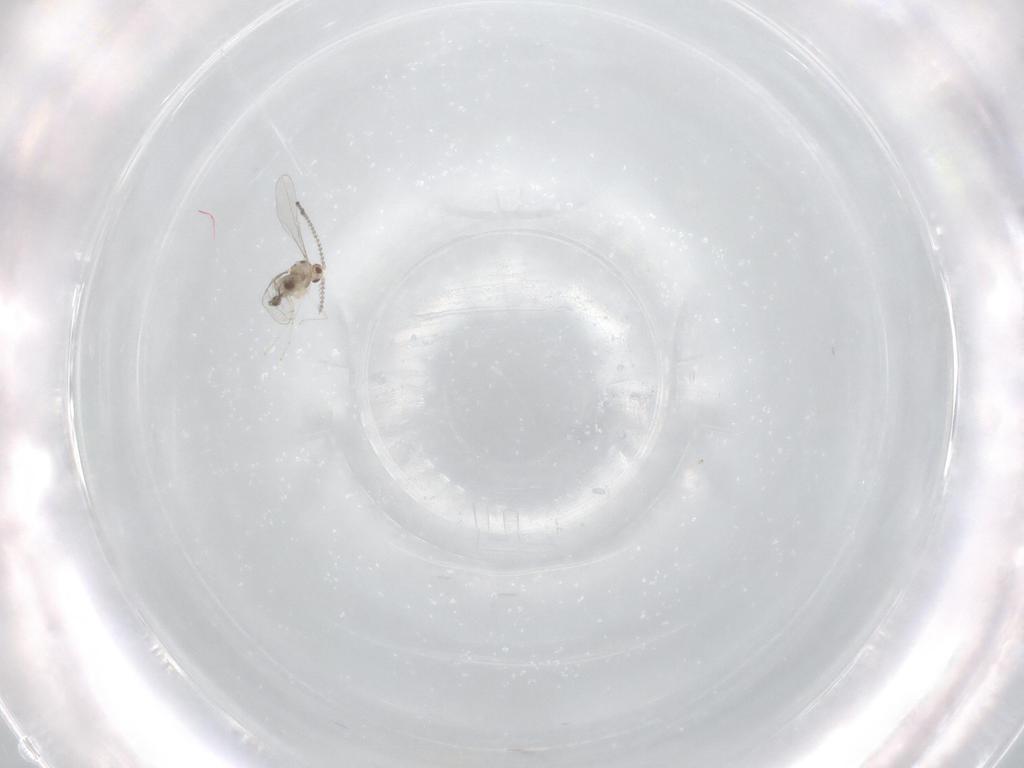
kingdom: Animalia
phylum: Arthropoda
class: Insecta
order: Diptera
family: Cecidomyiidae
